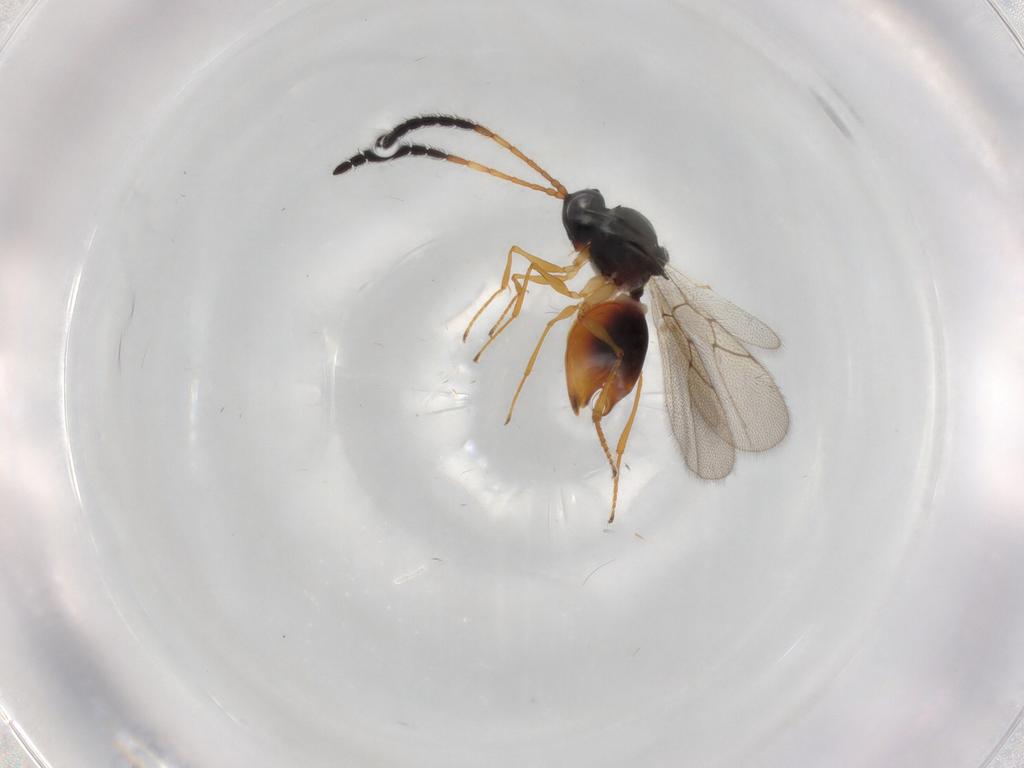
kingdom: Animalia
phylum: Arthropoda
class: Insecta
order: Hymenoptera
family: Figitidae
